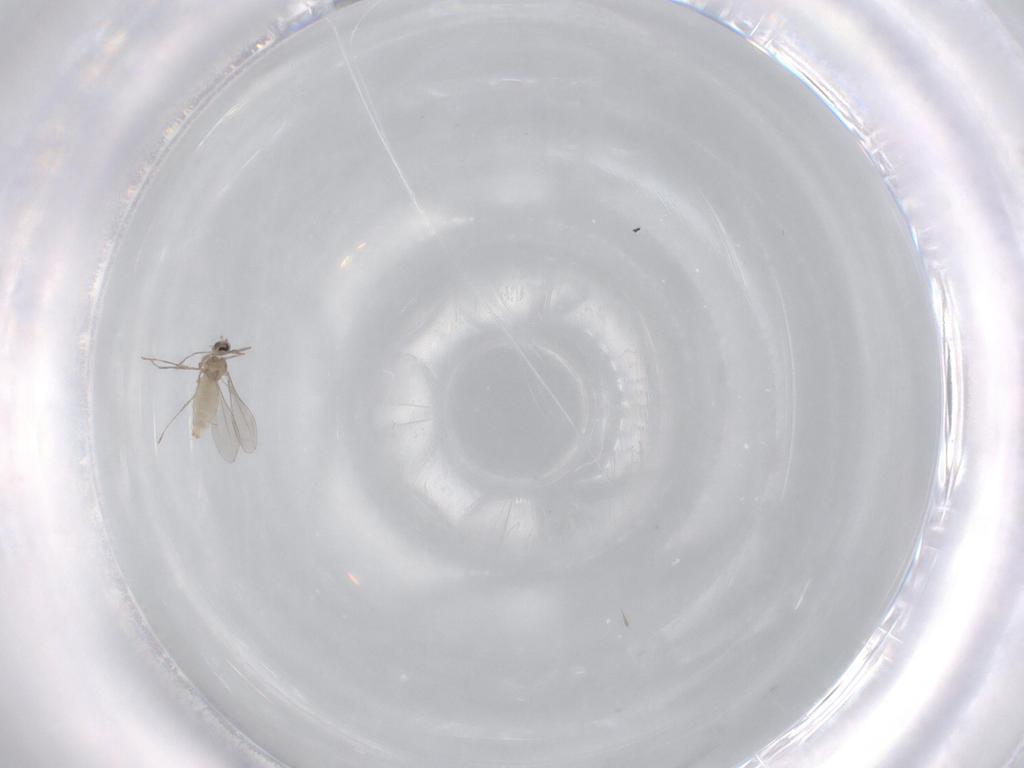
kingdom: Animalia
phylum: Arthropoda
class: Insecta
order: Diptera
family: Cecidomyiidae
